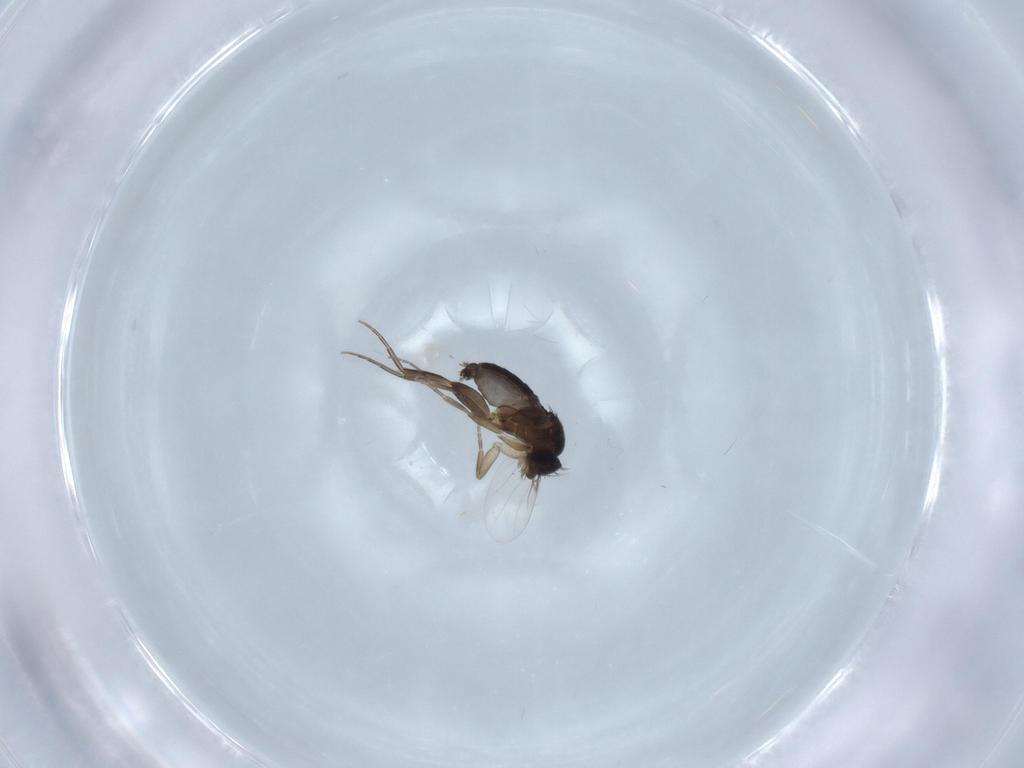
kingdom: Animalia
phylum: Arthropoda
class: Insecta
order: Diptera
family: Phoridae
